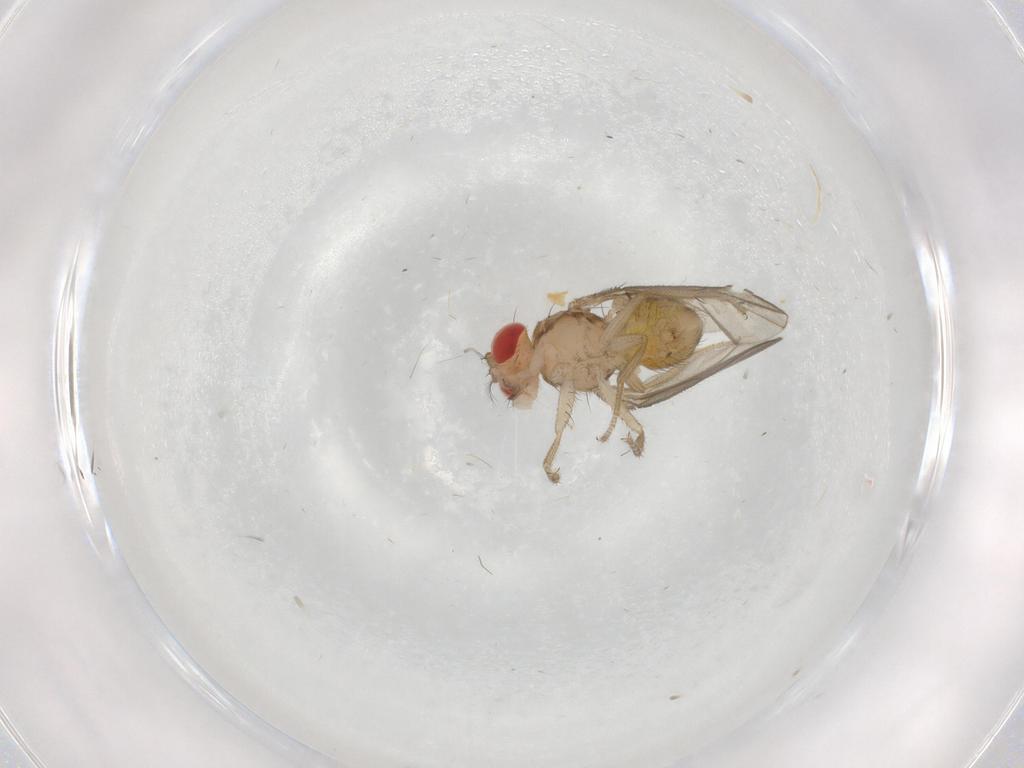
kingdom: Animalia
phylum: Arthropoda
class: Insecta
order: Diptera
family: Drosophilidae
